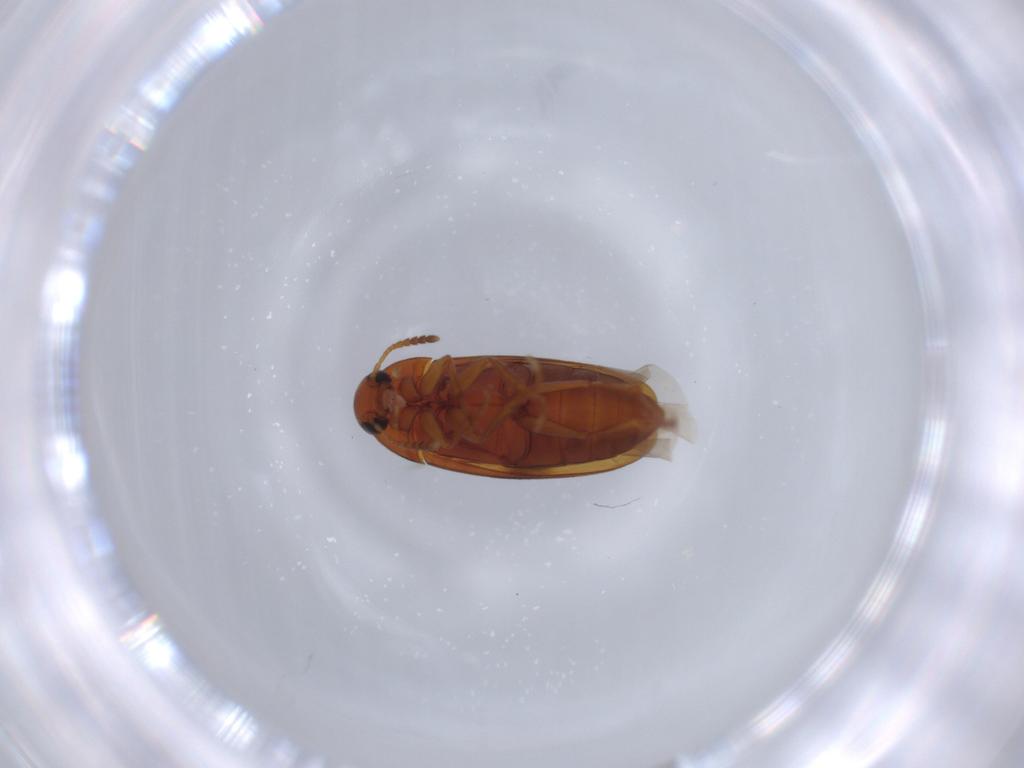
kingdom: Animalia
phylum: Arthropoda
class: Insecta
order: Coleoptera
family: Scraptiidae
